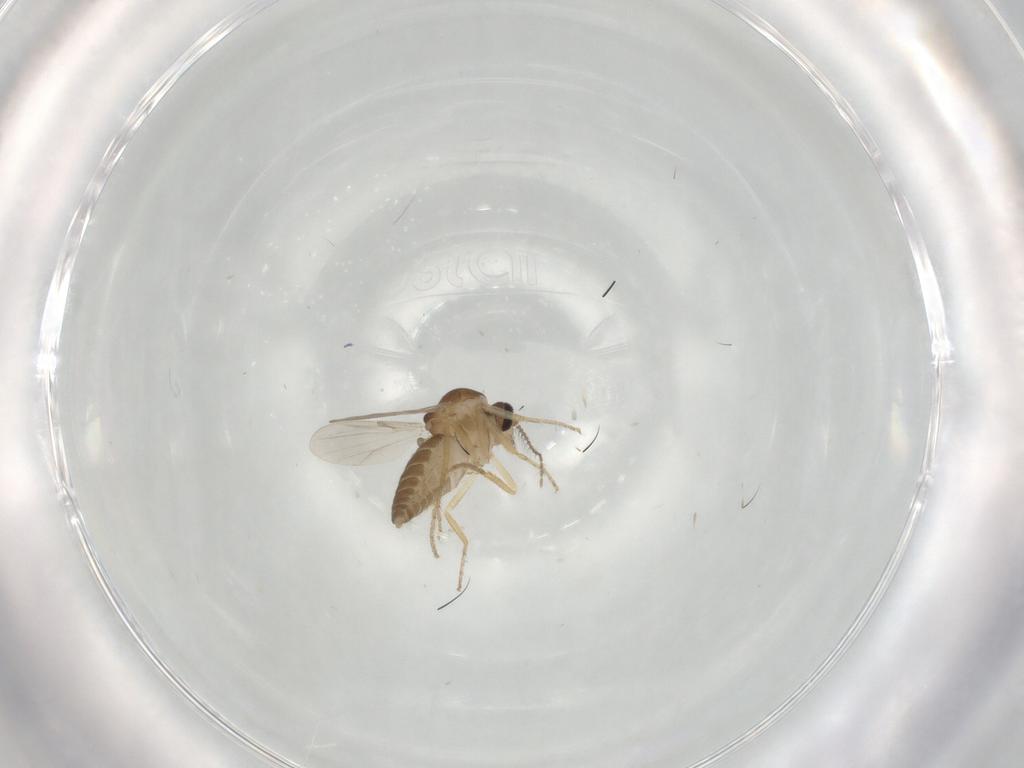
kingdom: Animalia
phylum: Arthropoda
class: Insecta
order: Diptera
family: Ceratopogonidae
